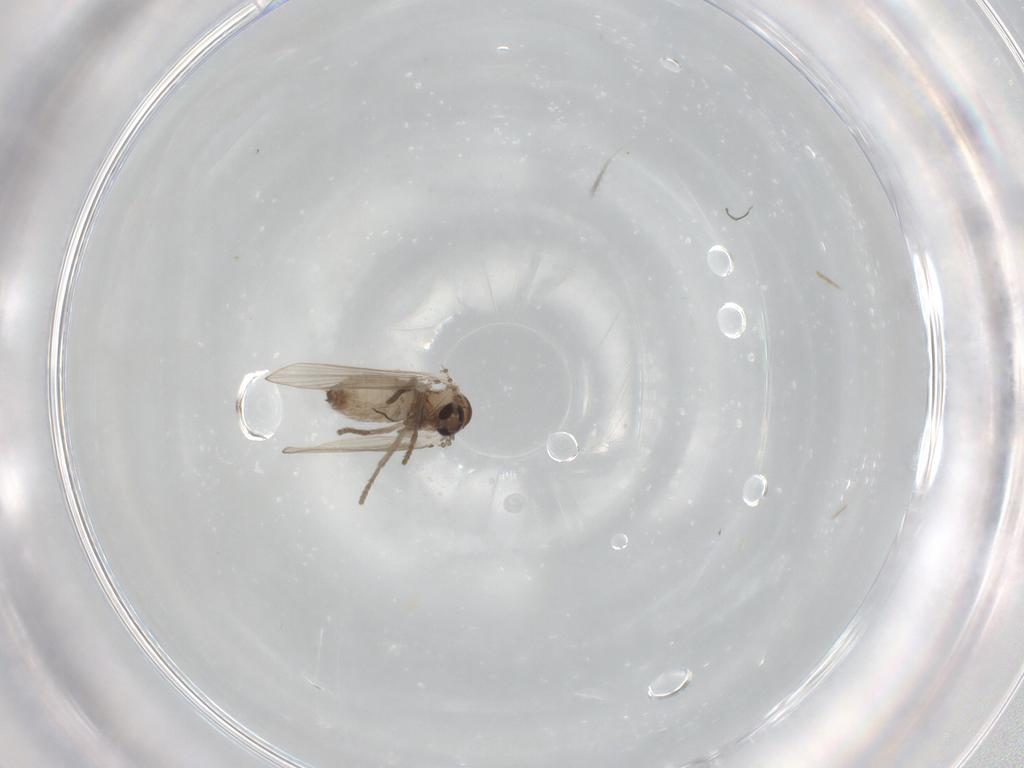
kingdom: Animalia
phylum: Arthropoda
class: Insecta
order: Diptera
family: Psychodidae
